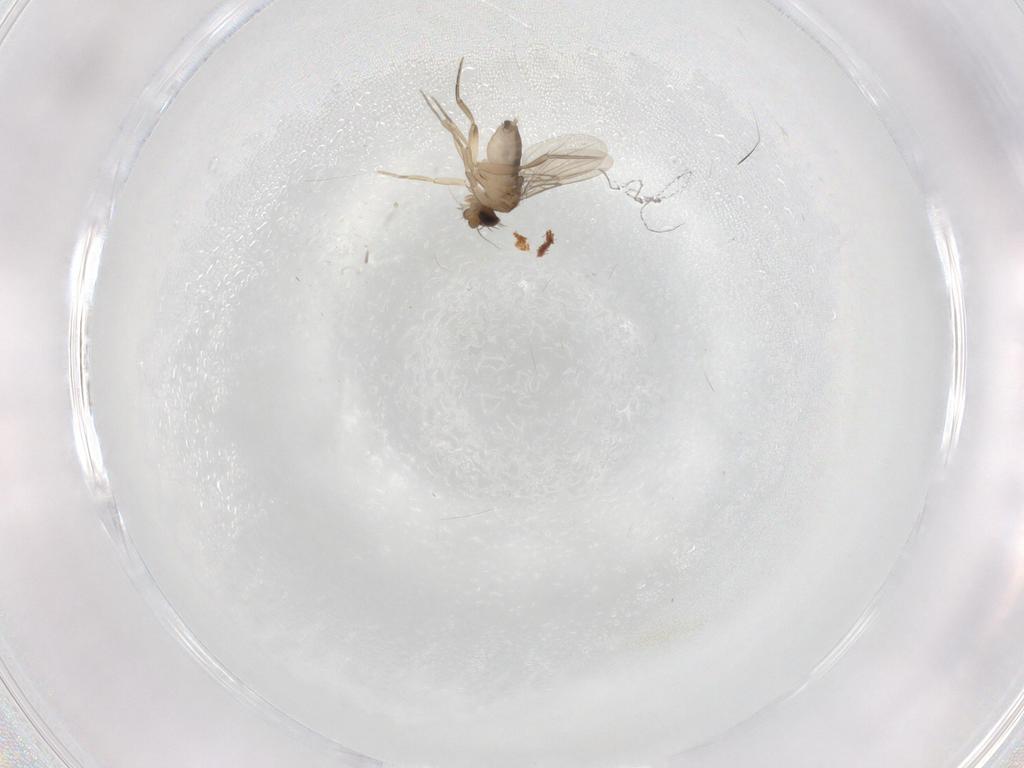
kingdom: Animalia
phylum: Arthropoda
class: Insecta
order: Diptera
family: Phoridae
